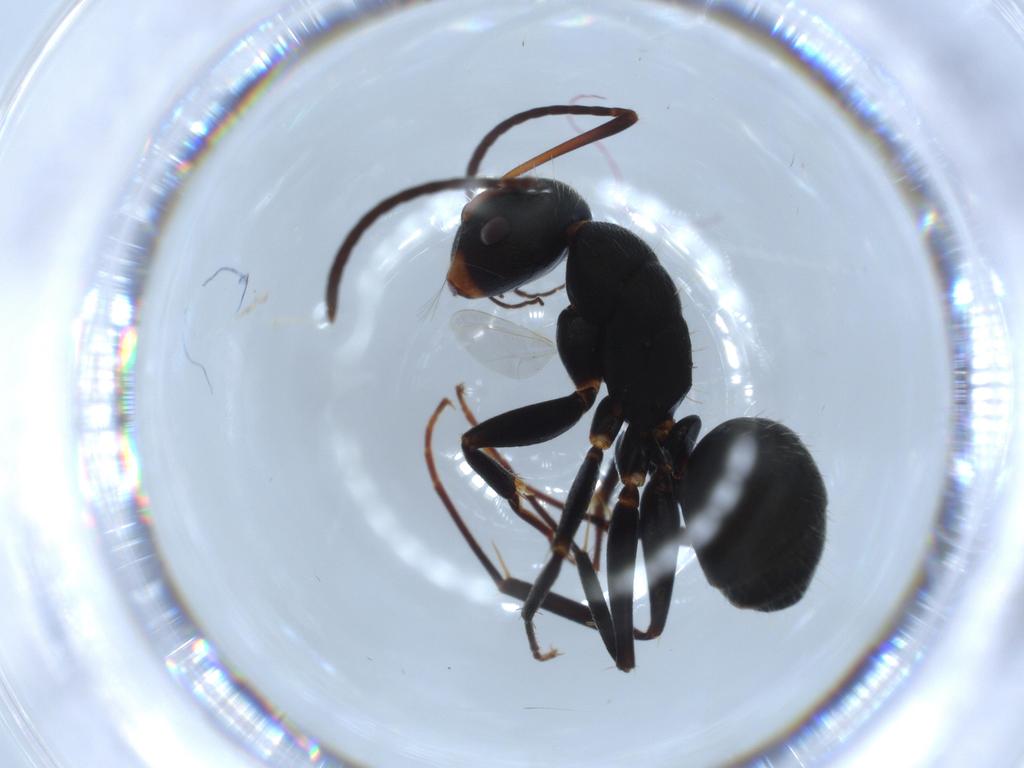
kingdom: Animalia
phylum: Arthropoda
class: Insecta
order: Hymenoptera
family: Formicidae
